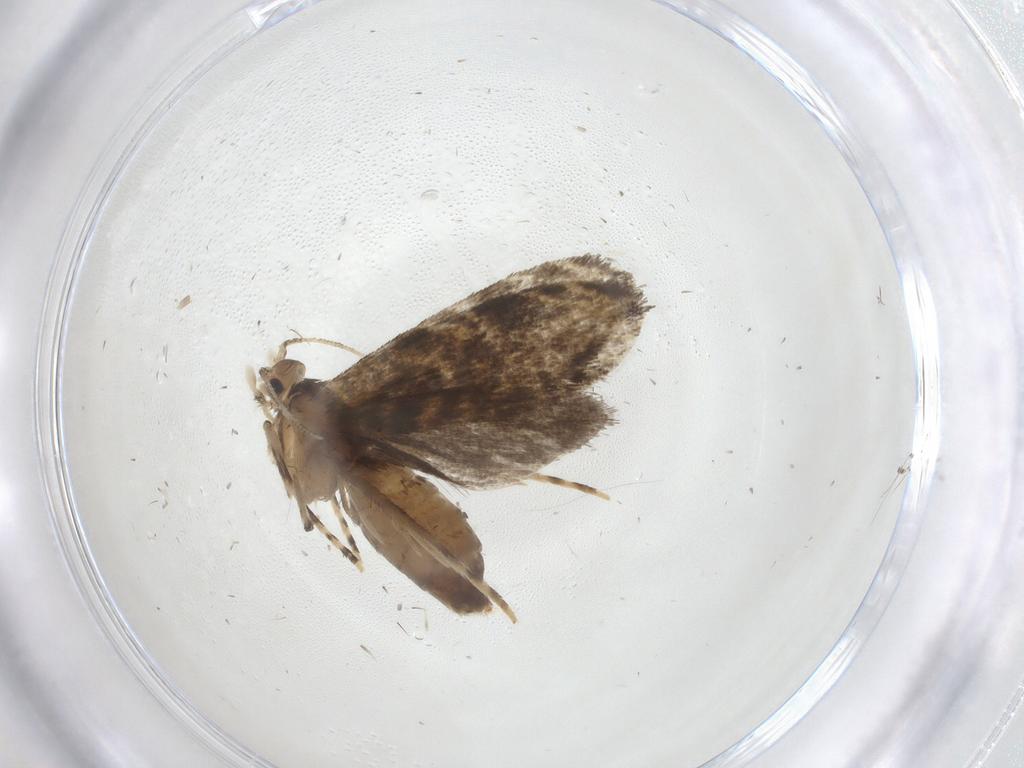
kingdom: Animalia
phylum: Arthropoda
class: Insecta
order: Lepidoptera
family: Tineidae
